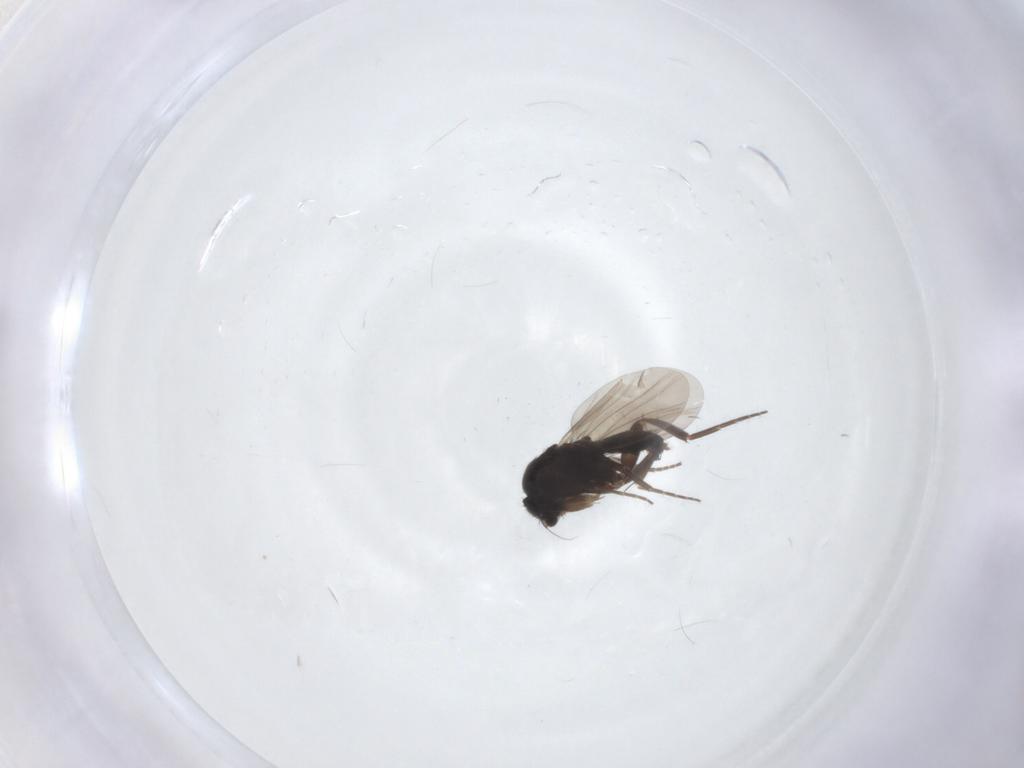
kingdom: Animalia
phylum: Arthropoda
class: Insecta
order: Diptera
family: Phoridae
